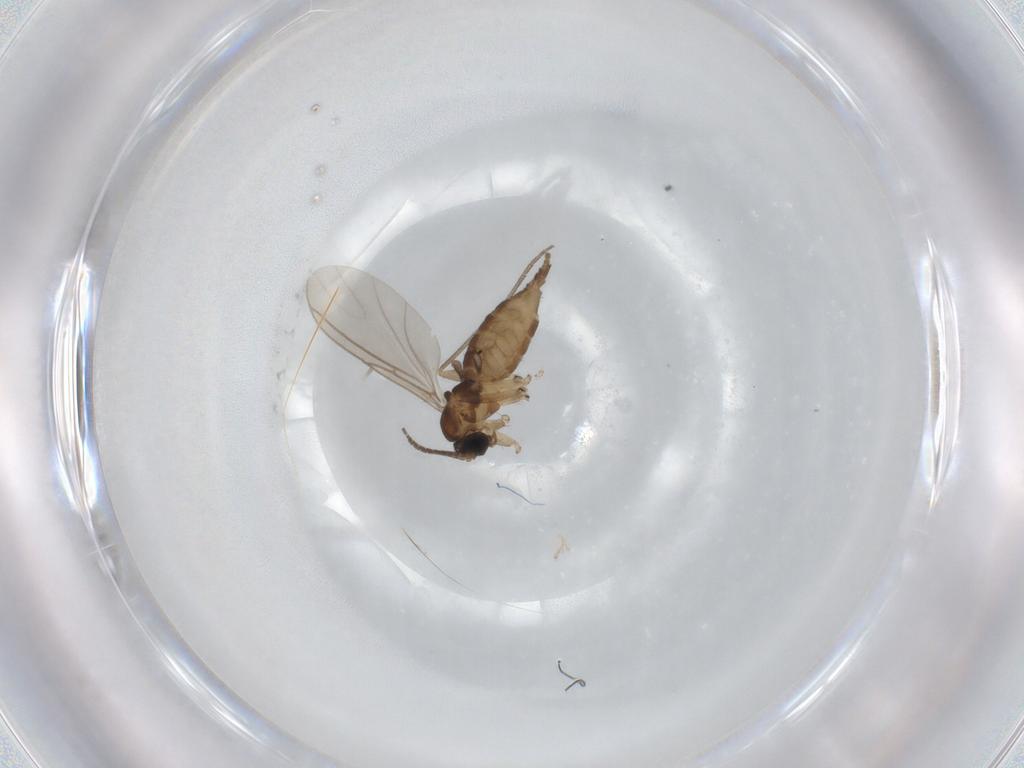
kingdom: Animalia
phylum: Arthropoda
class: Insecta
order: Diptera
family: Sciaridae
